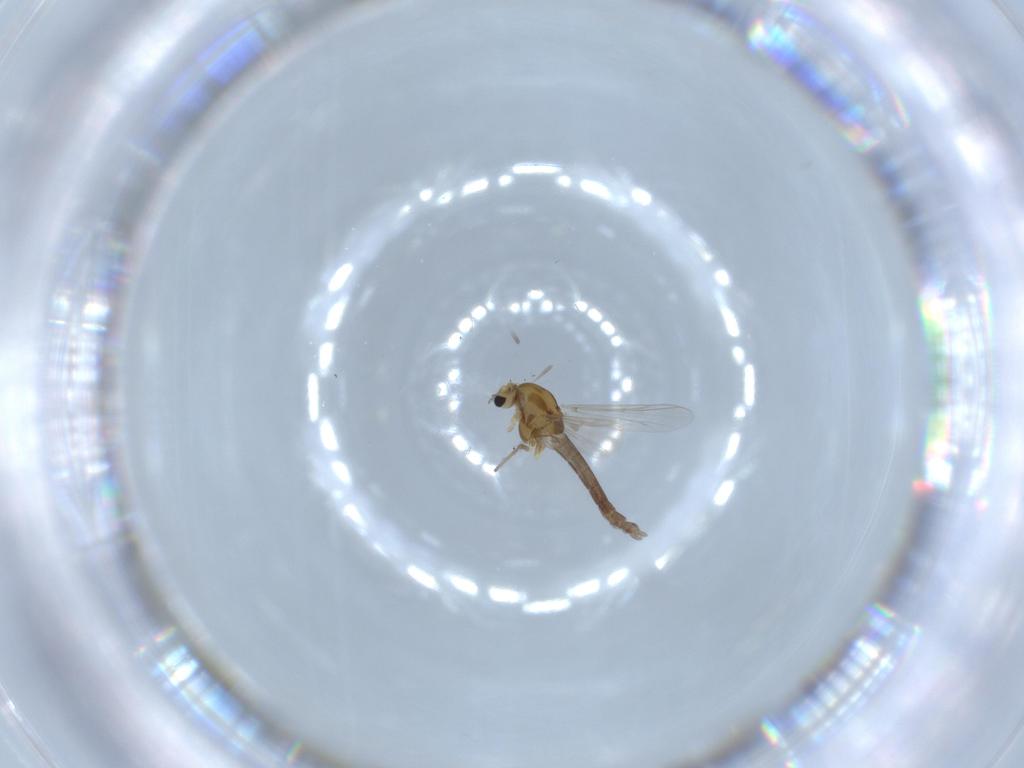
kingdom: Animalia
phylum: Arthropoda
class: Insecta
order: Diptera
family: Chironomidae
